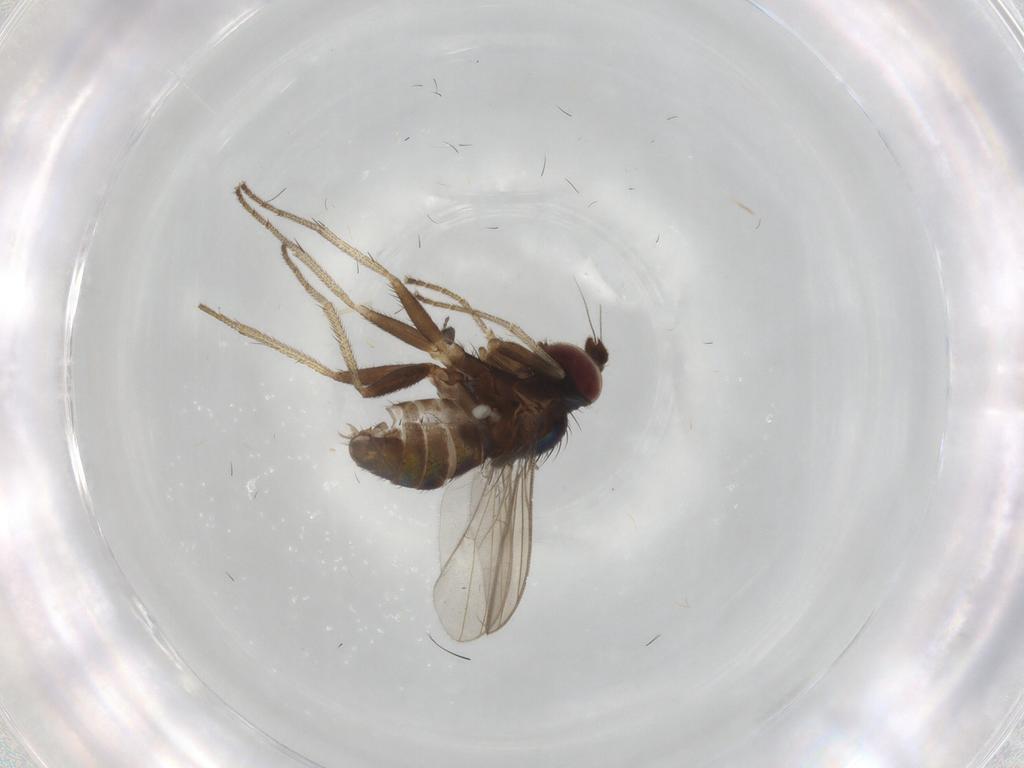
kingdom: Animalia
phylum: Arthropoda
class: Insecta
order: Diptera
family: Dolichopodidae
